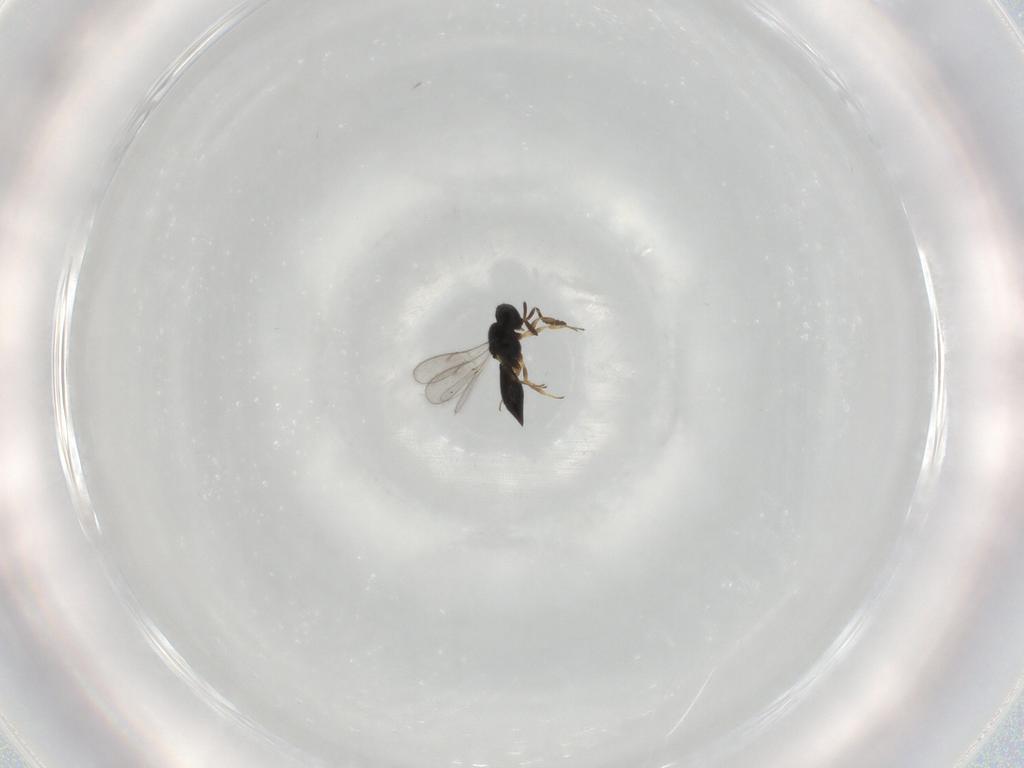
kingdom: Animalia
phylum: Arthropoda
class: Insecta
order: Hymenoptera
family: Scelionidae
